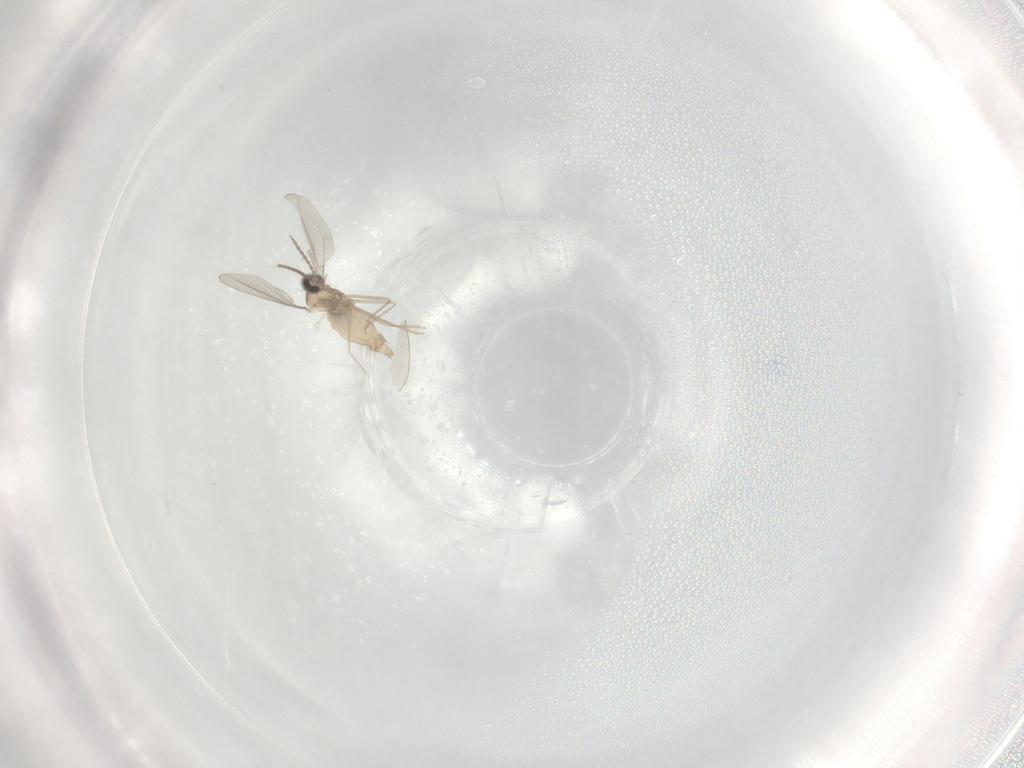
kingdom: Animalia
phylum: Arthropoda
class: Insecta
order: Diptera
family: Cecidomyiidae
